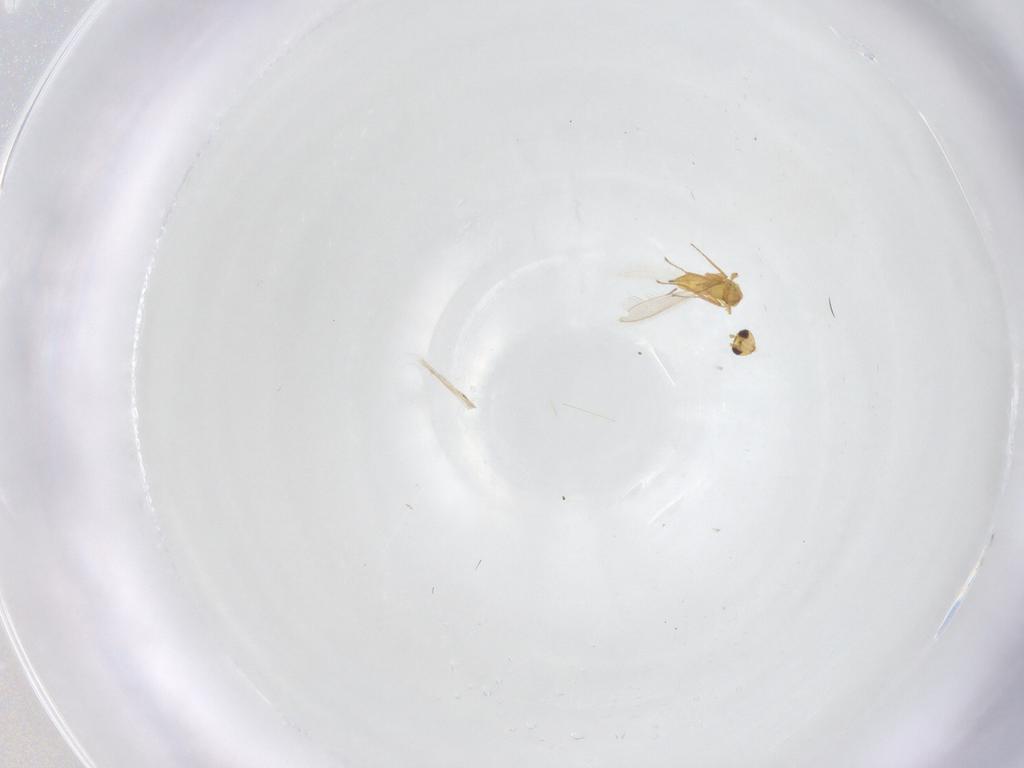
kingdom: Animalia
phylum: Arthropoda
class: Insecta
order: Hymenoptera
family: Mymaridae
